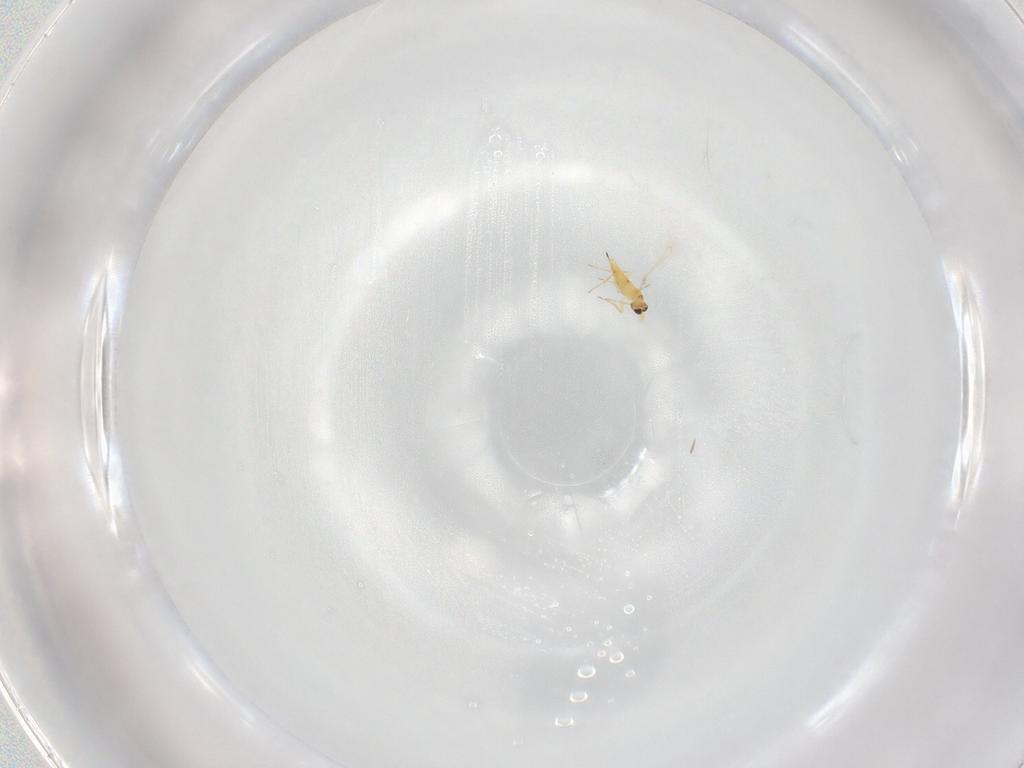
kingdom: Animalia
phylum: Arthropoda
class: Insecta
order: Hymenoptera
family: Mymaridae
